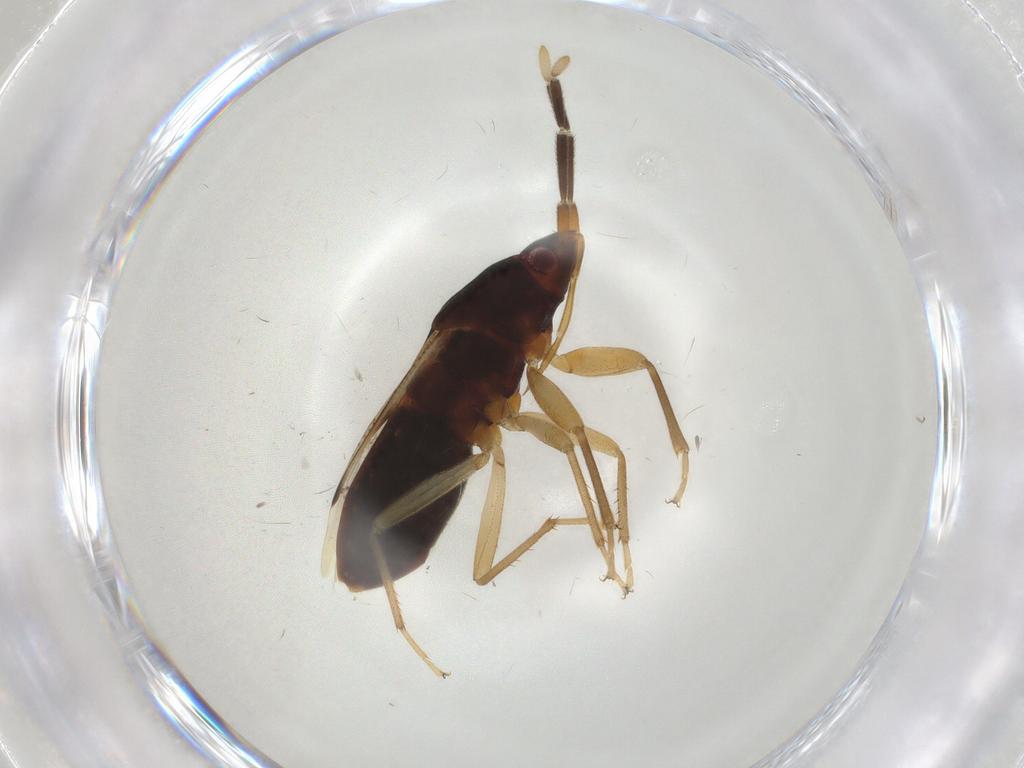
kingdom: Animalia
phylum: Arthropoda
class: Insecta
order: Hemiptera
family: Rhyparochromidae
